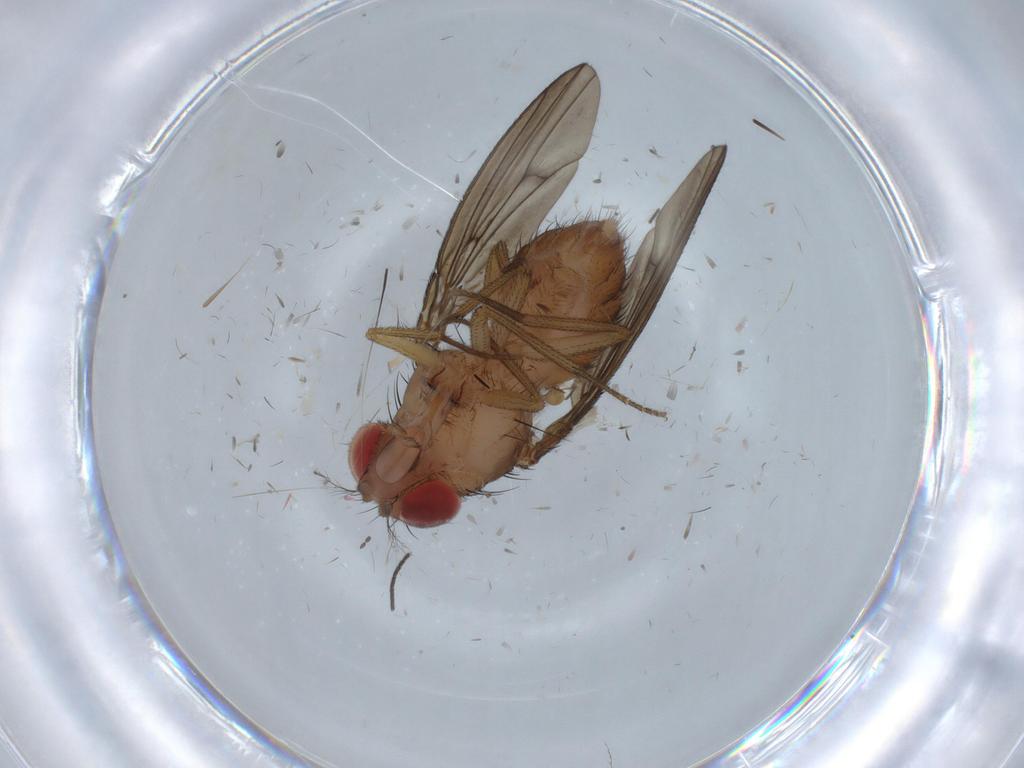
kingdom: Animalia
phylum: Arthropoda
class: Insecta
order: Diptera
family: Drosophilidae
